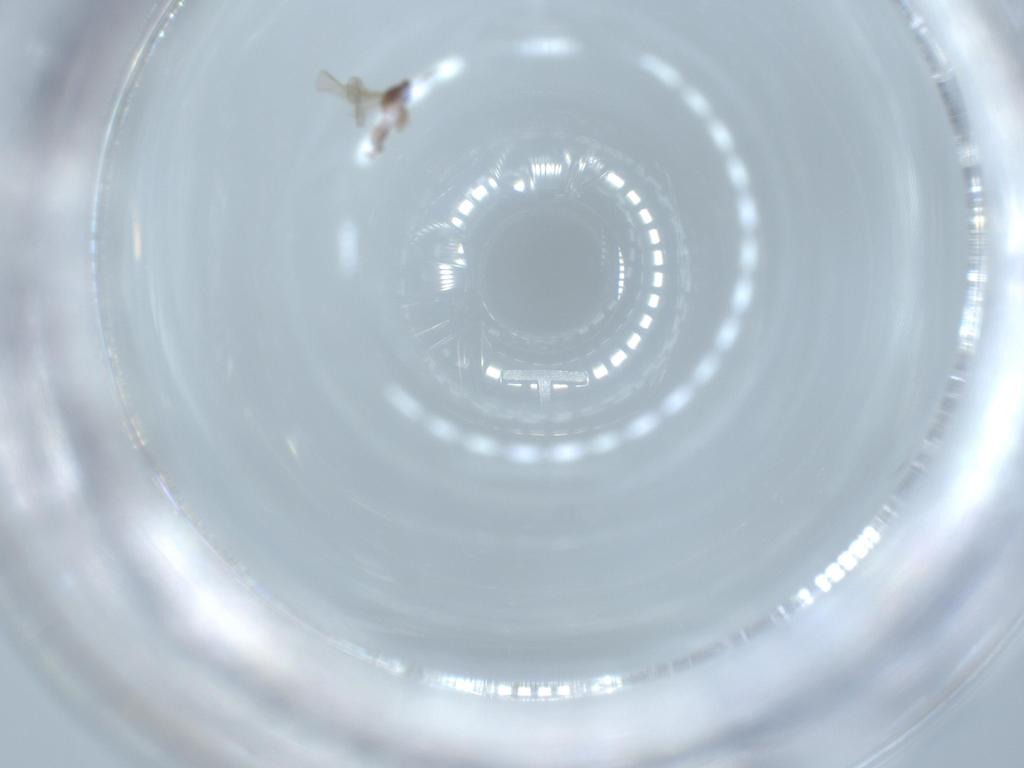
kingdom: Animalia
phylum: Arthropoda
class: Insecta
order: Diptera
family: Cecidomyiidae
